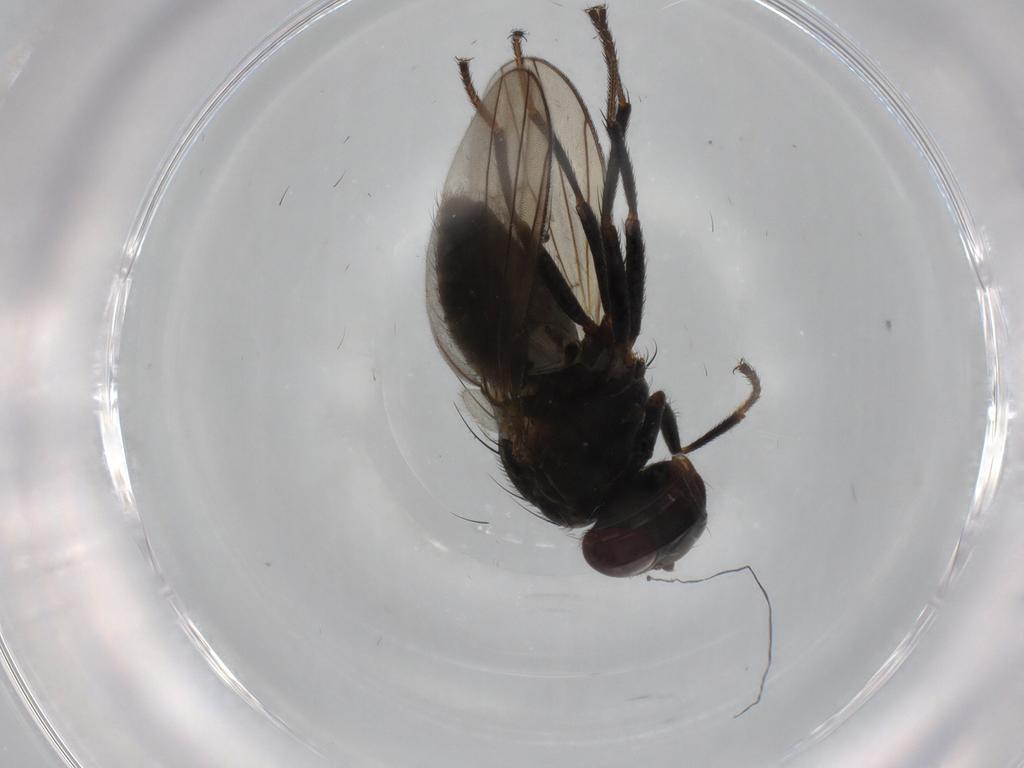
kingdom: Animalia
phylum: Arthropoda
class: Insecta
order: Diptera
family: Ephydridae
